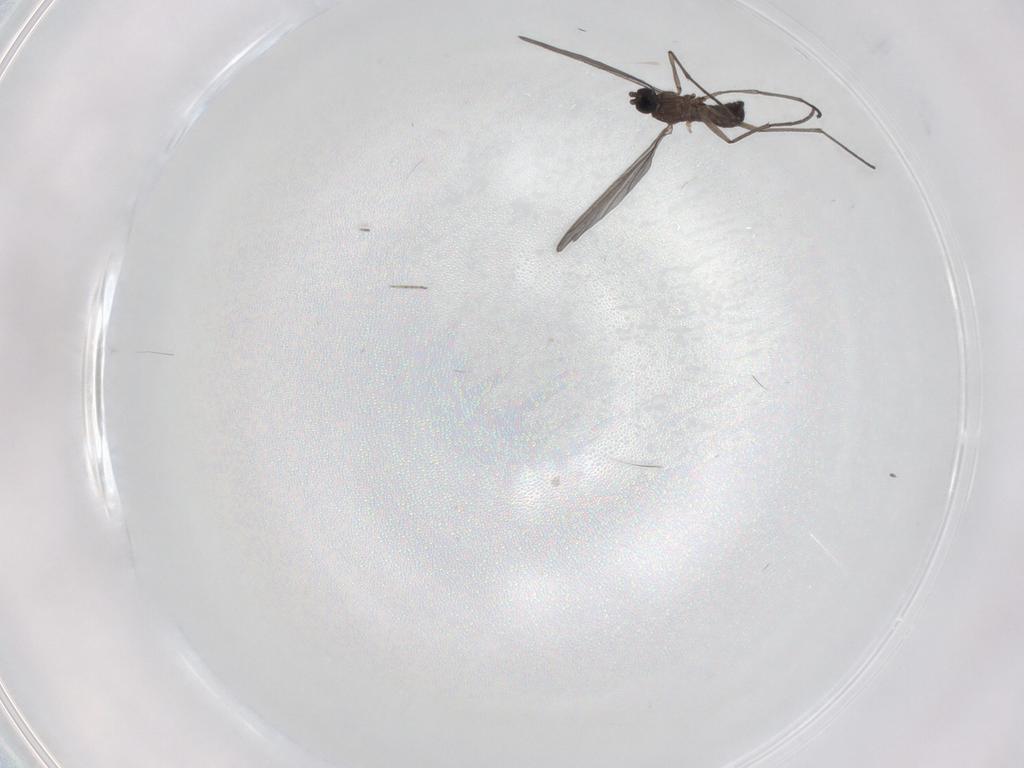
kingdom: Animalia
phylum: Arthropoda
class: Insecta
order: Diptera
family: Sciaridae
